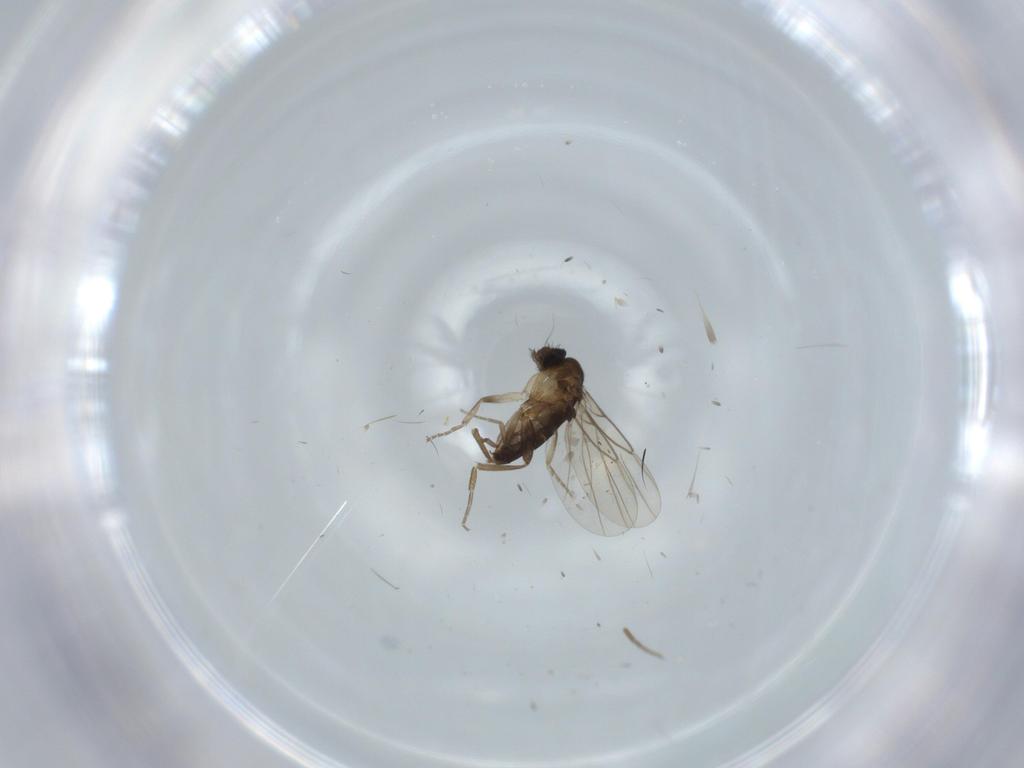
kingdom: Animalia
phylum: Arthropoda
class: Insecta
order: Diptera
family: Phoridae
